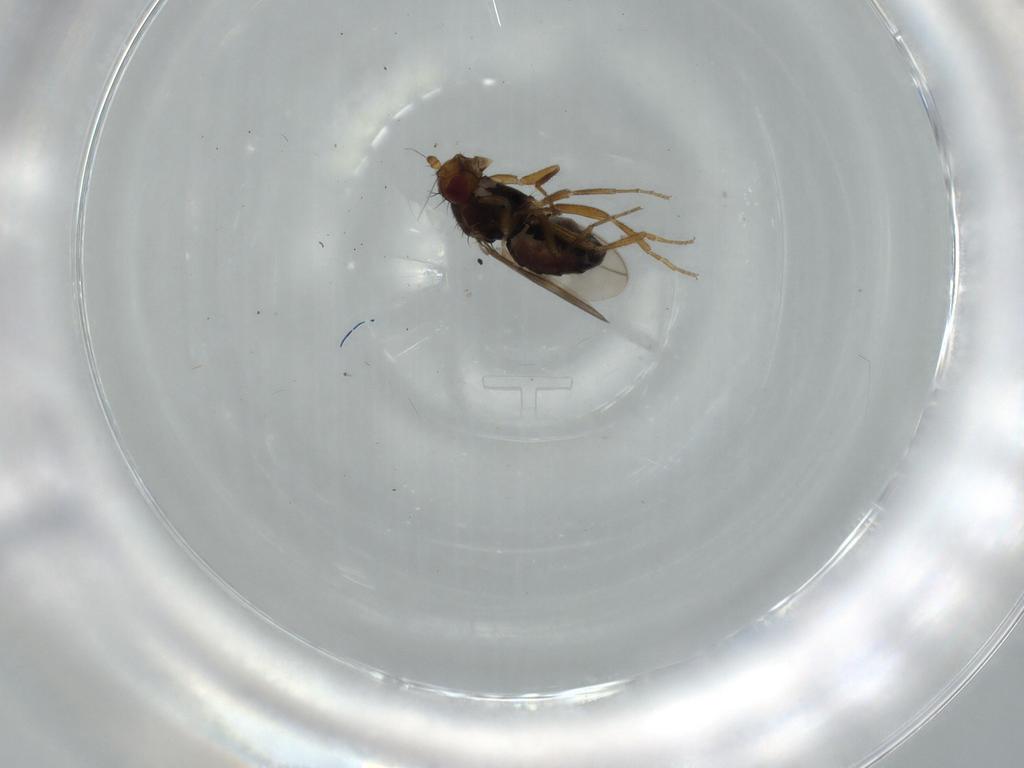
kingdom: Animalia
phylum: Arthropoda
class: Insecta
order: Diptera
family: Sphaeroceridae
